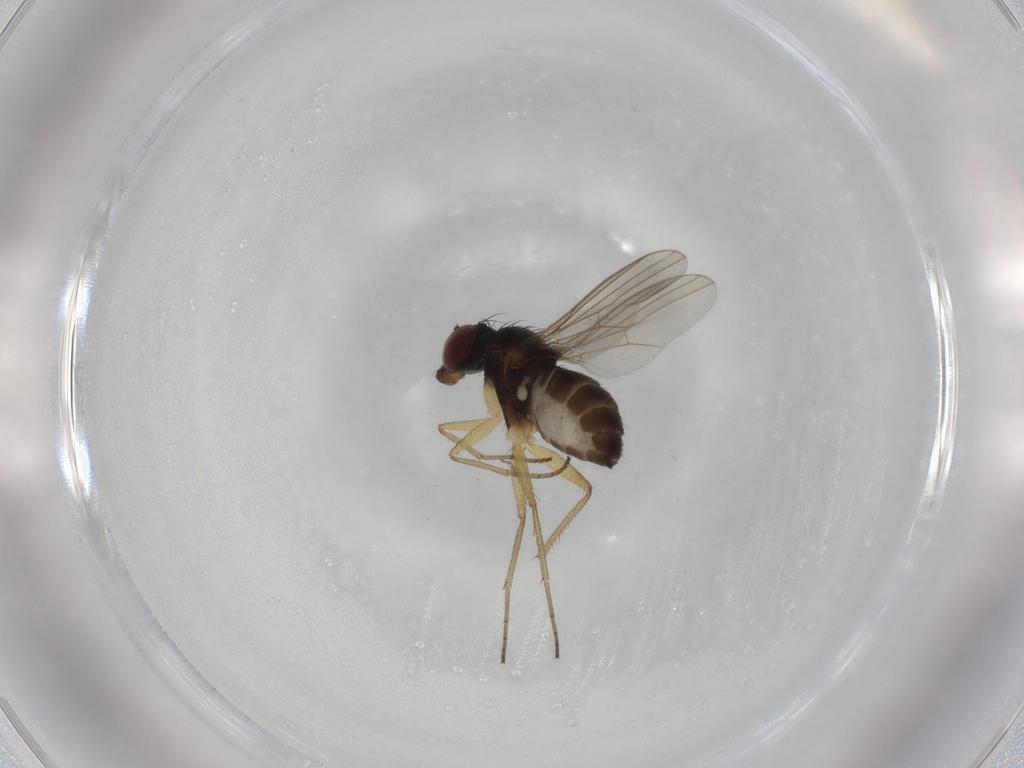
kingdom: Animalia
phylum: Arthropoda
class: Insecta
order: Diptera
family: Dolichopodidae
